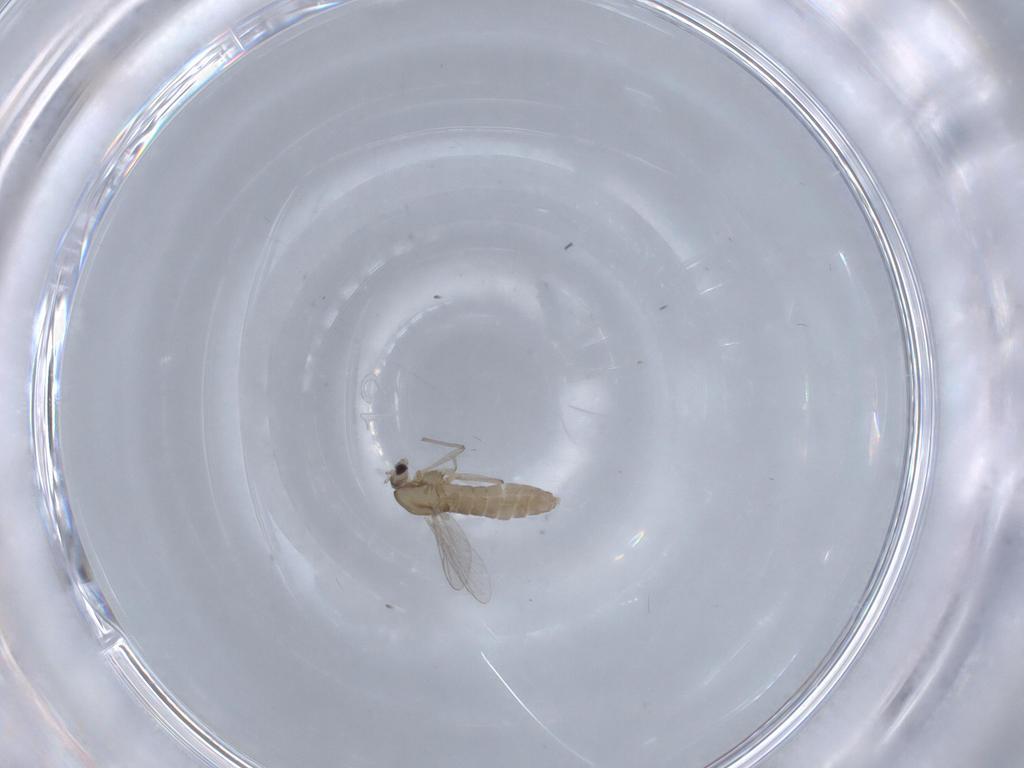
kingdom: Animalia
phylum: Arthropoda
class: Insecta
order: Diptera
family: Chironomidae
